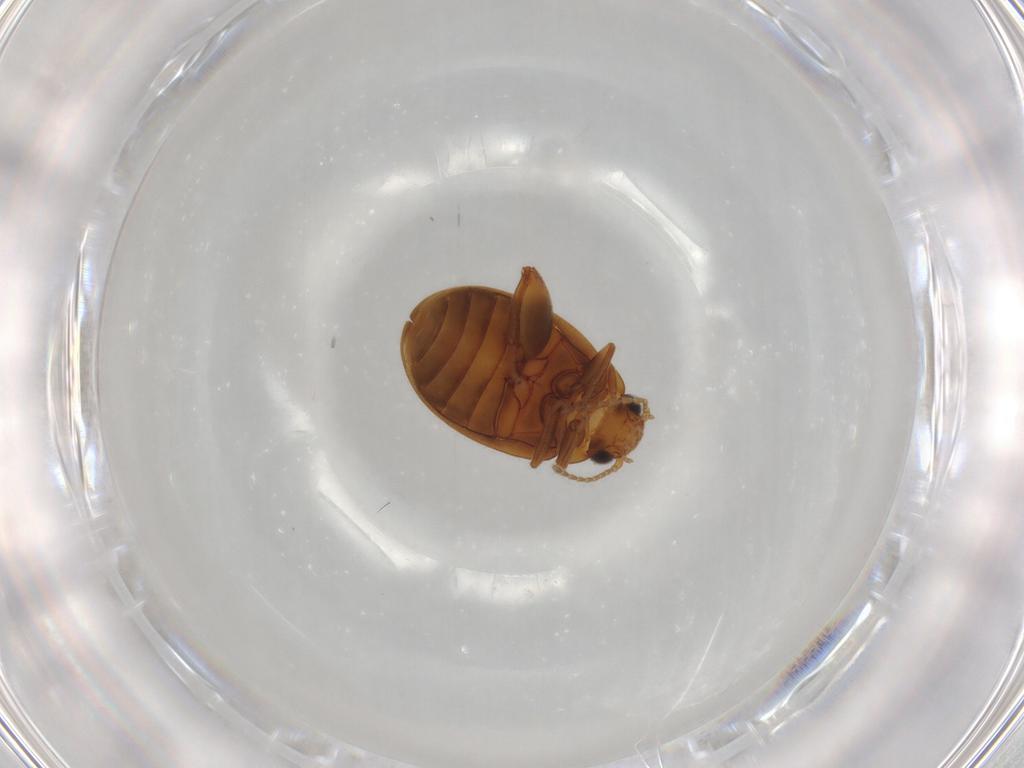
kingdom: Animalia
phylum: Arthropoda
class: Insecta
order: Coleoptera
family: Scirtidae
